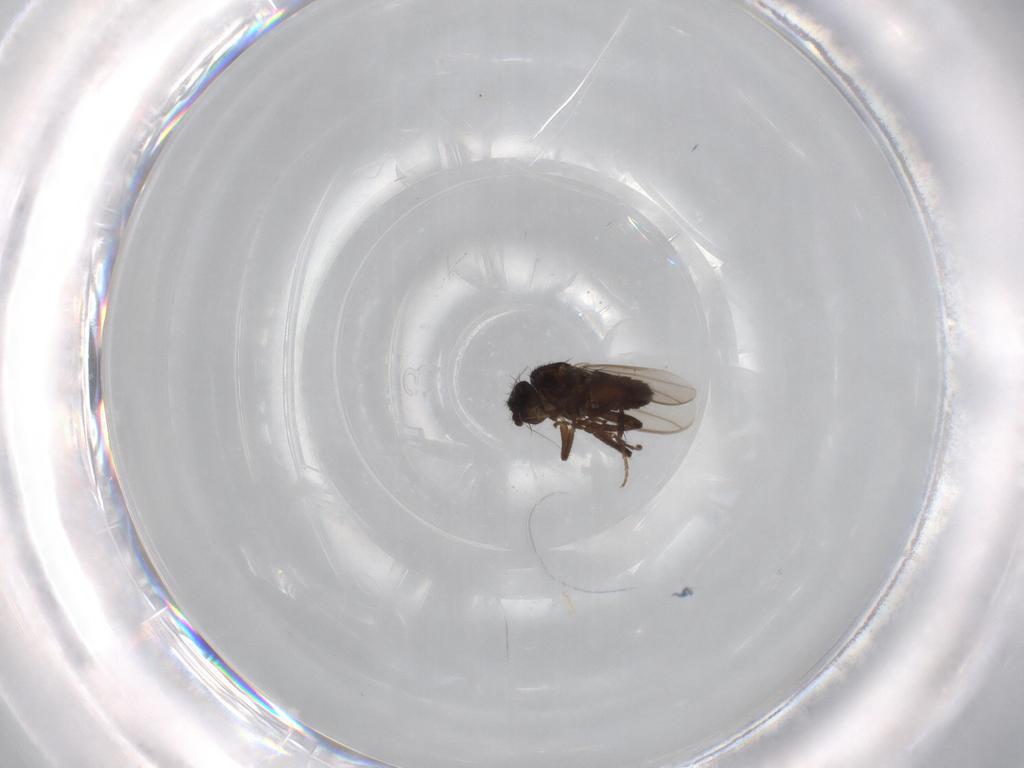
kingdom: Animalia
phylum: Arthropoda
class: Insecta
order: Diptera
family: Sphaeroceridae
